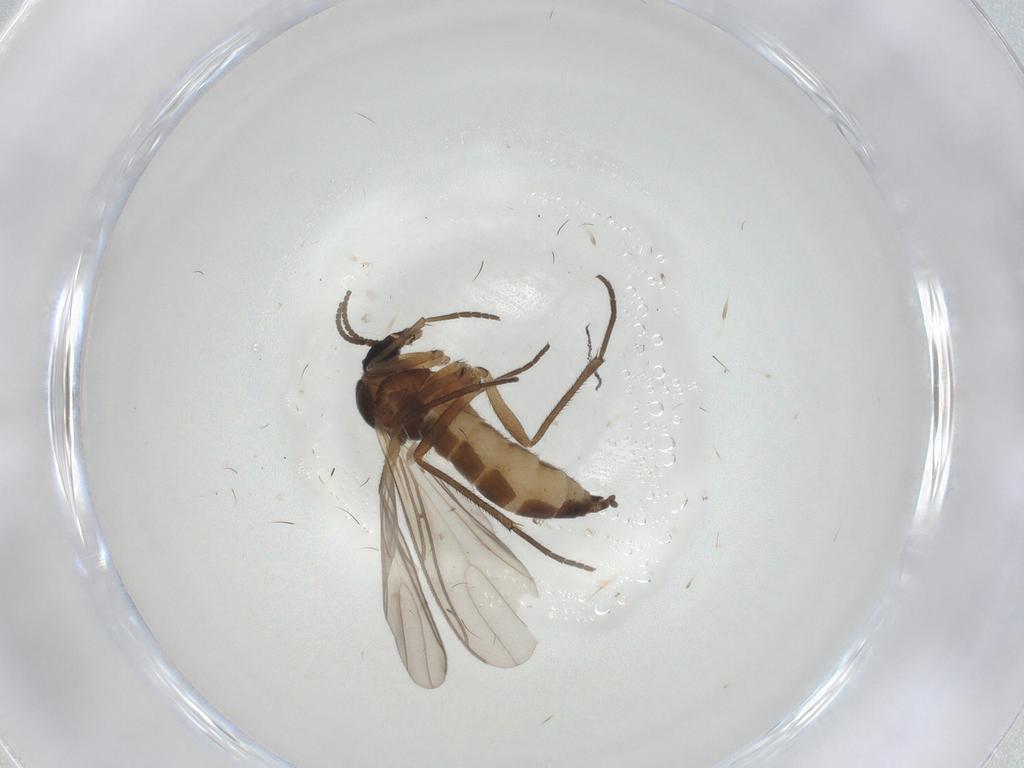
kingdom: Animalia
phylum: Arthropoda
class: Insecta
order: Diptera
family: Sciaridae
